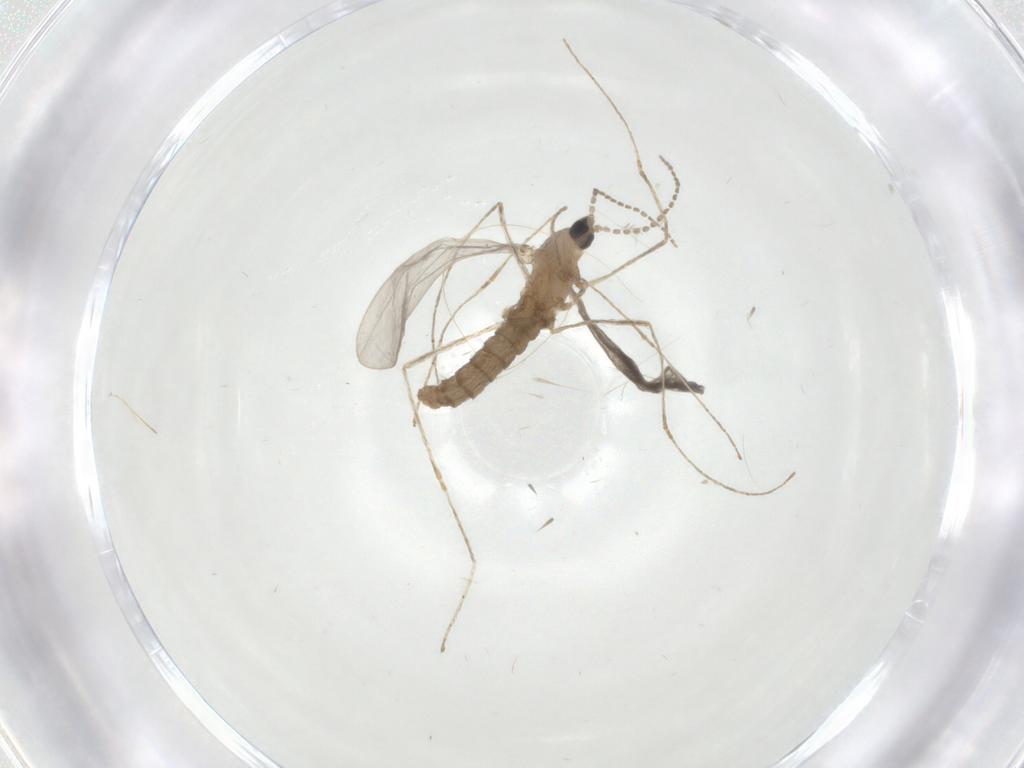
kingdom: Animalia
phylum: Arthropoda
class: Insecta
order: Diptera
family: Cecidomyiidae
